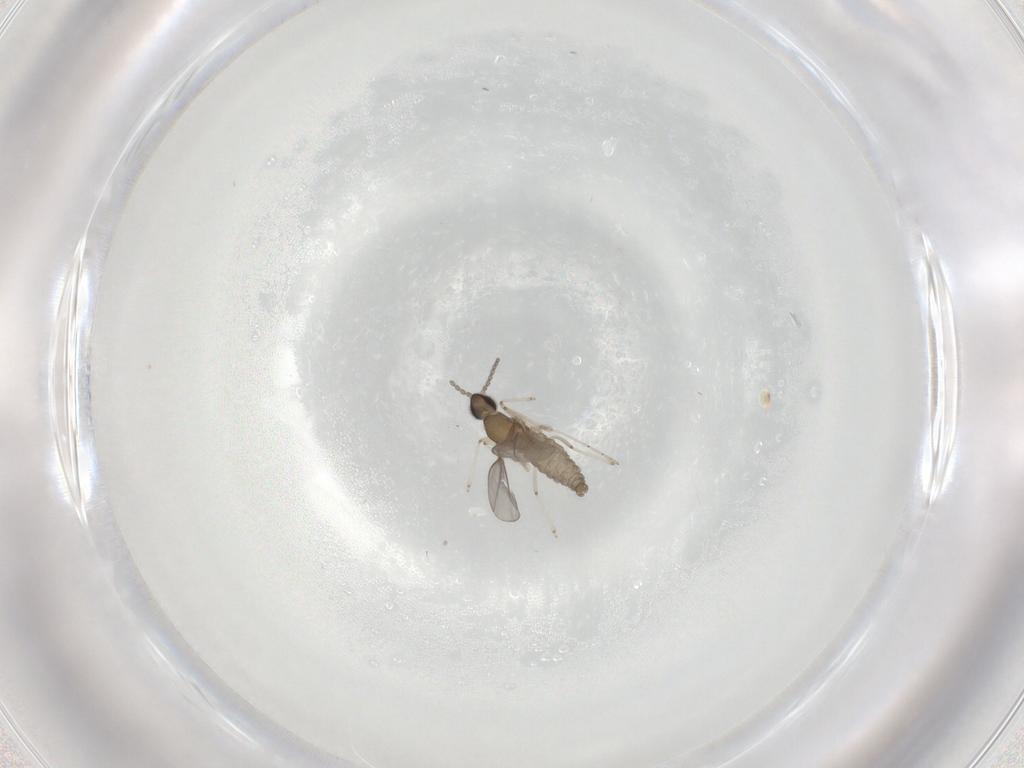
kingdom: Animalia
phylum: Arthropoda
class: Insecta
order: Diptera
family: Cecidomyiidae
